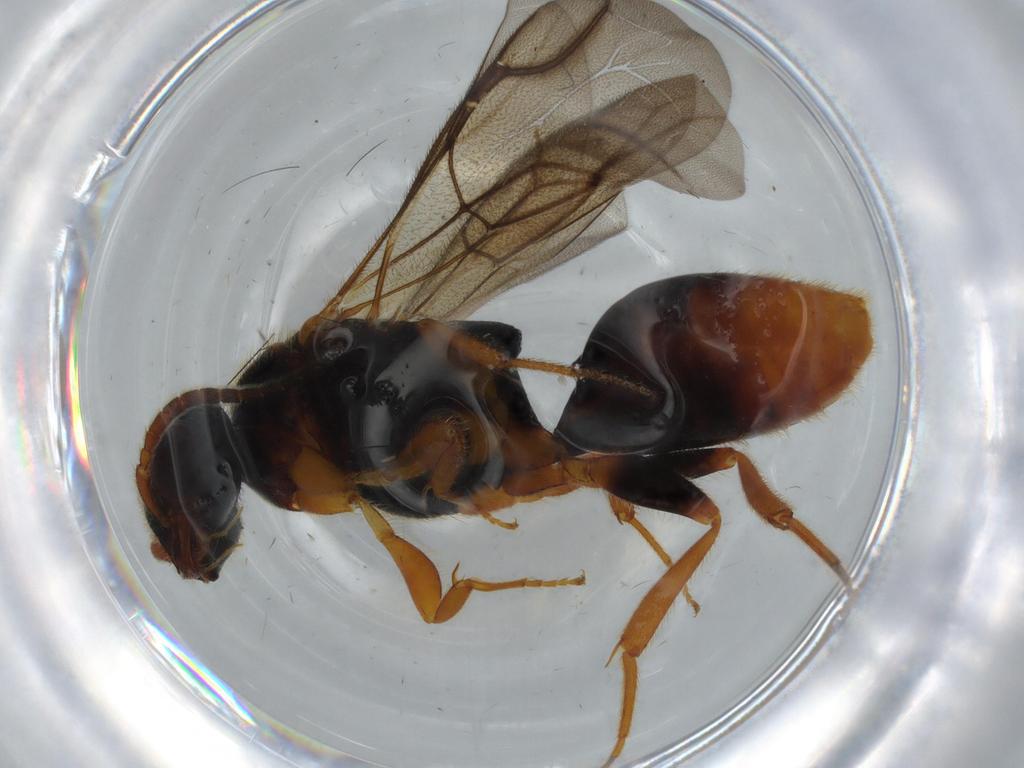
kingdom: Animalia
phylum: Arthropoda
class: Insecta
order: Hymenoptera
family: Bethylidae
